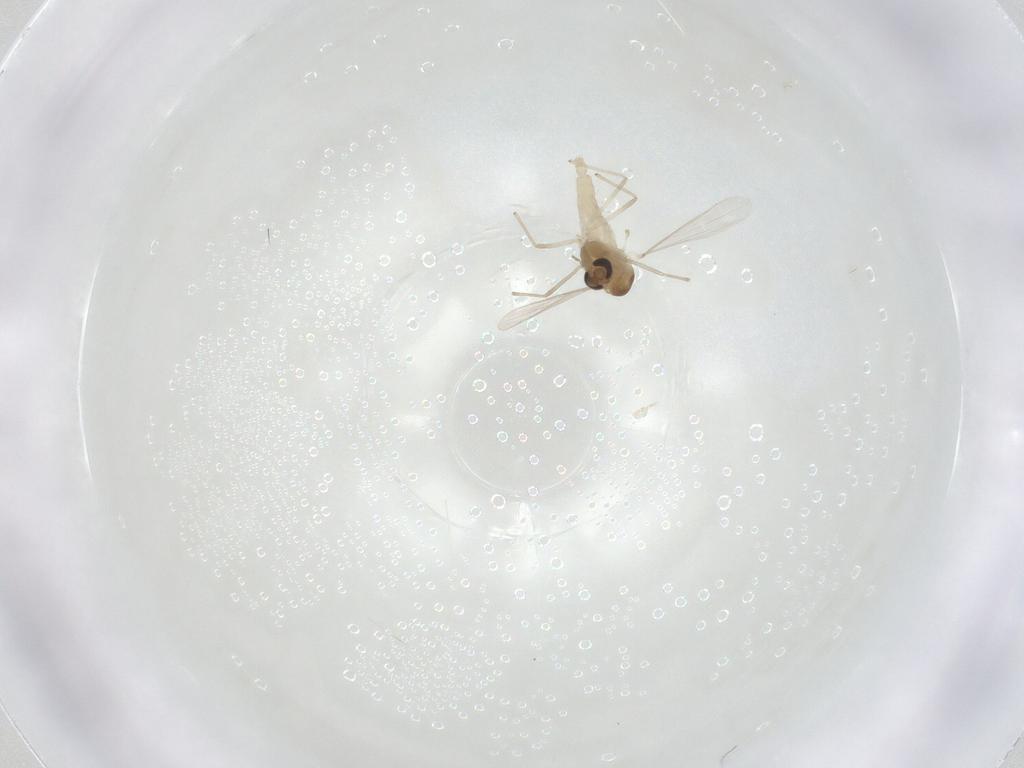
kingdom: Animalia
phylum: Arthropoda
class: Insecta
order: Diptera
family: Chironomidae
